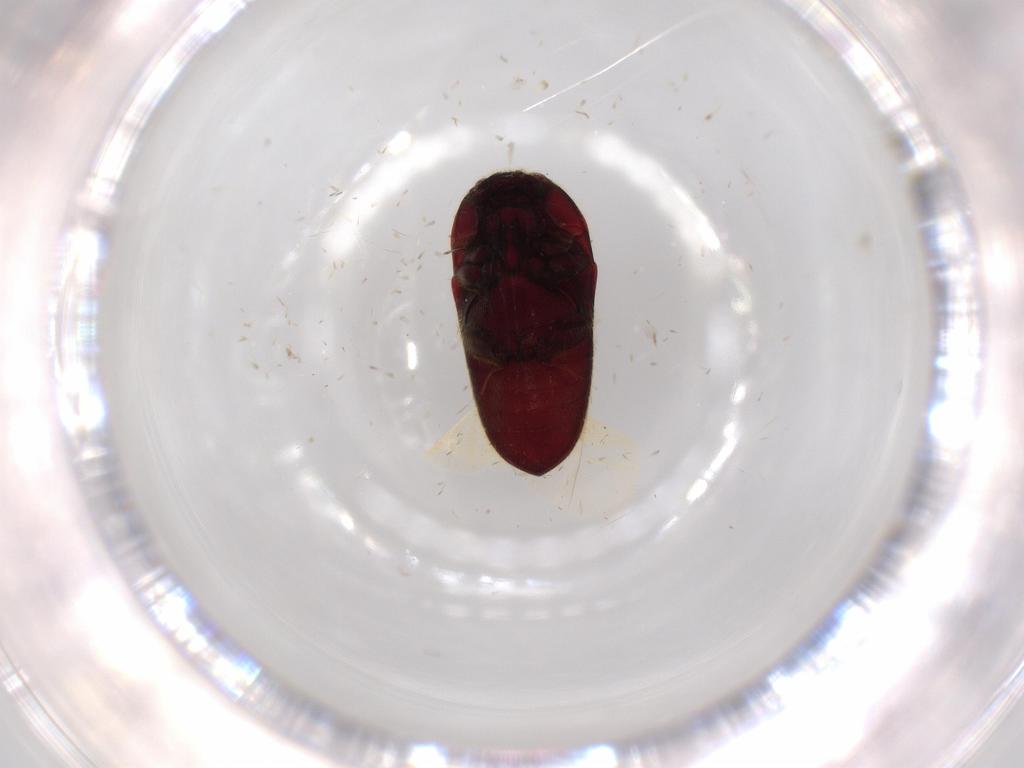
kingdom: Animalia
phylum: Arthropoda
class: Insecta
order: Coleoptera
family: Throscidae
